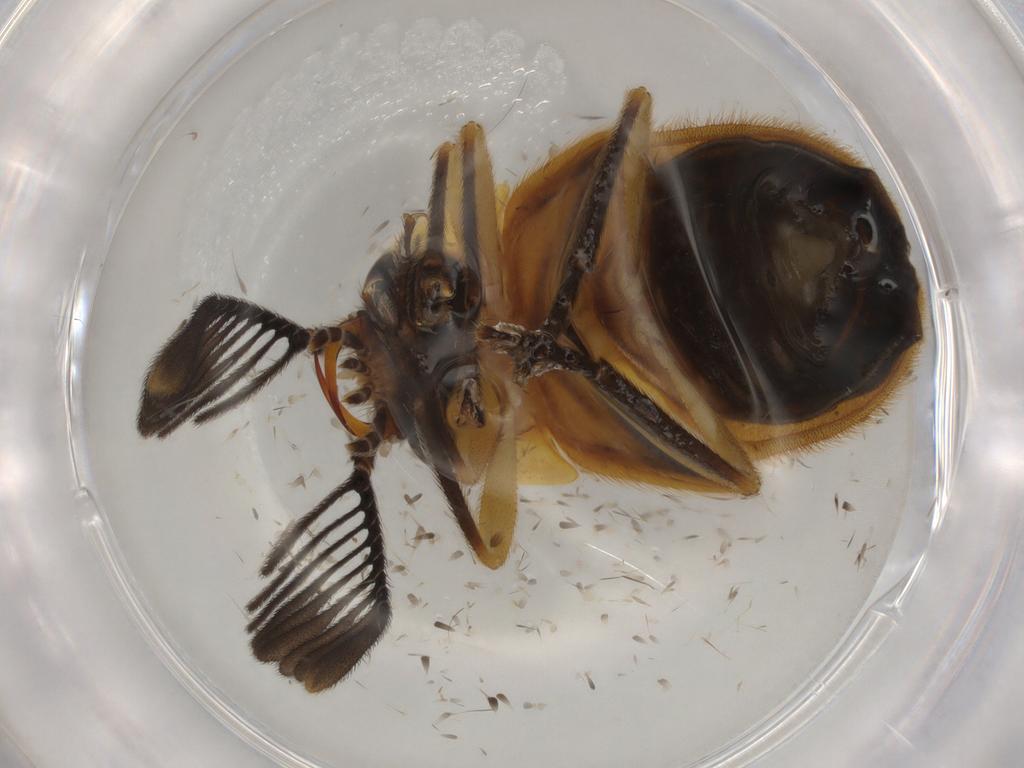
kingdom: Animalia
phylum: Arthropoda
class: Insecta
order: Coleoptera
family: Lampyridae
